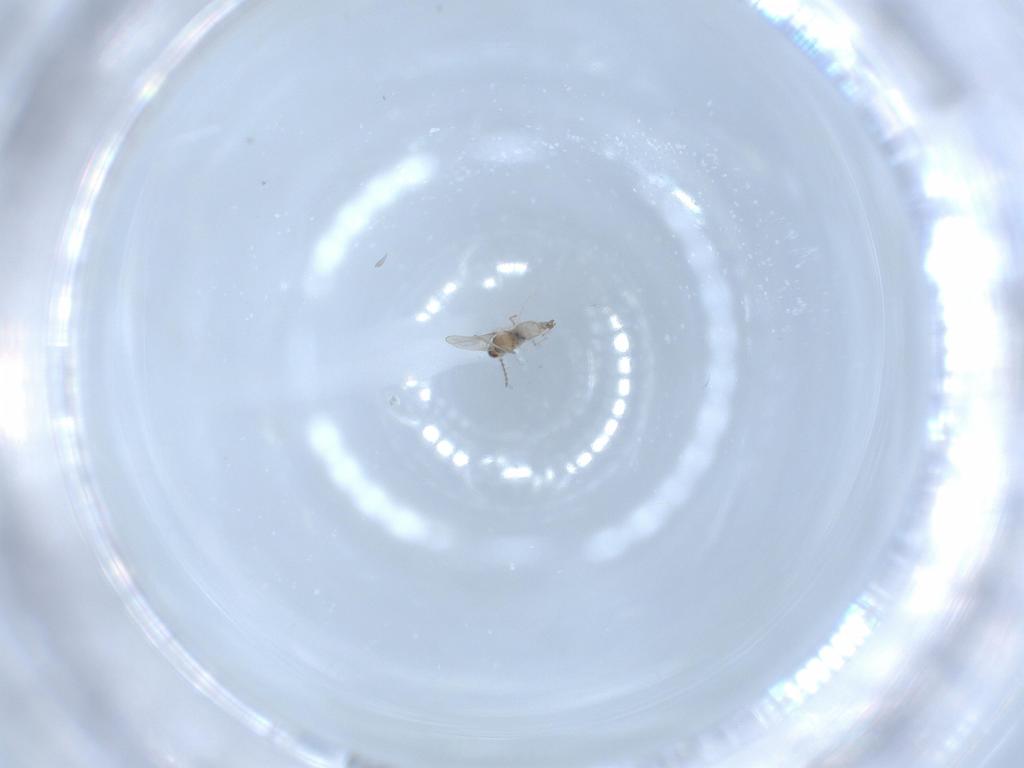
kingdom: Animalia
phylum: Arthropoda
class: Insecta
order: Diptera
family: Cecidomyiidae
